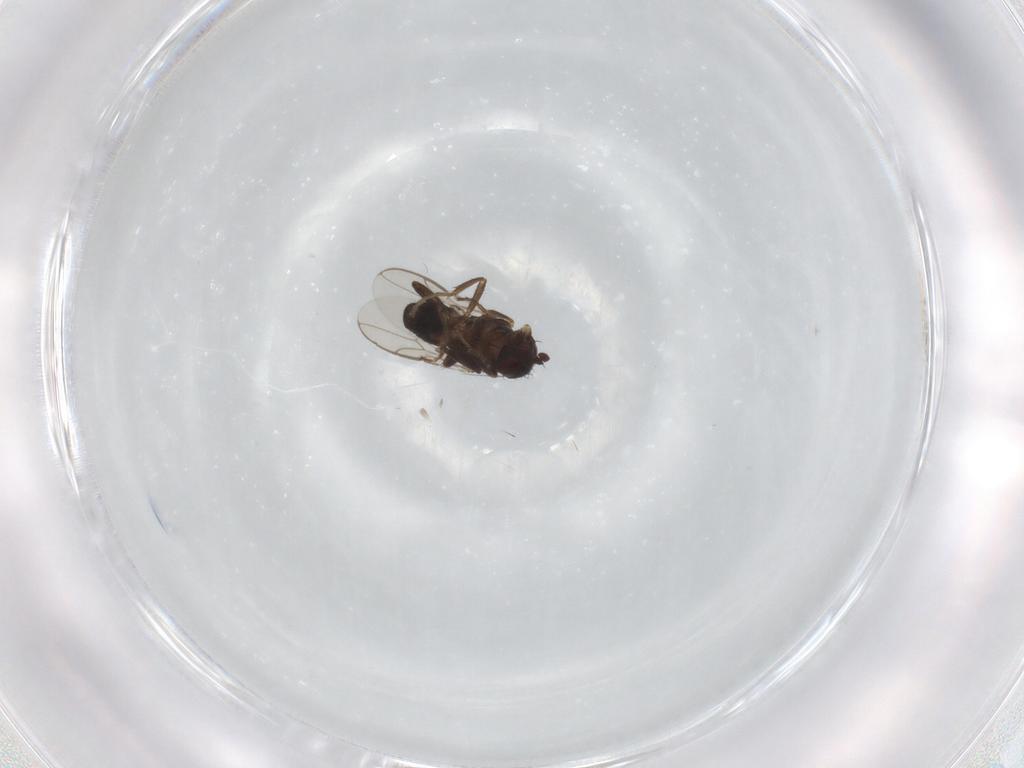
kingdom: Animalia
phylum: Arthropoda
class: Insecta
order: Diptera
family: Sphaeroceridae
